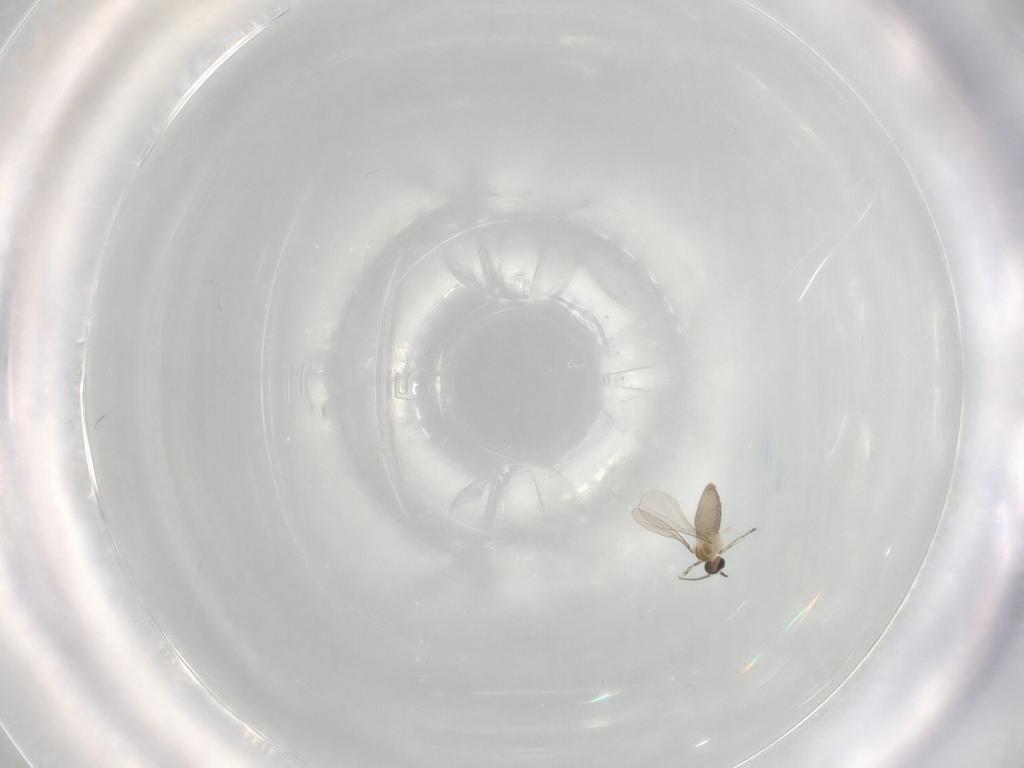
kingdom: Animalia
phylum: Arthropoda
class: Insecta
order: Diptera
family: Cecidomyiidae
